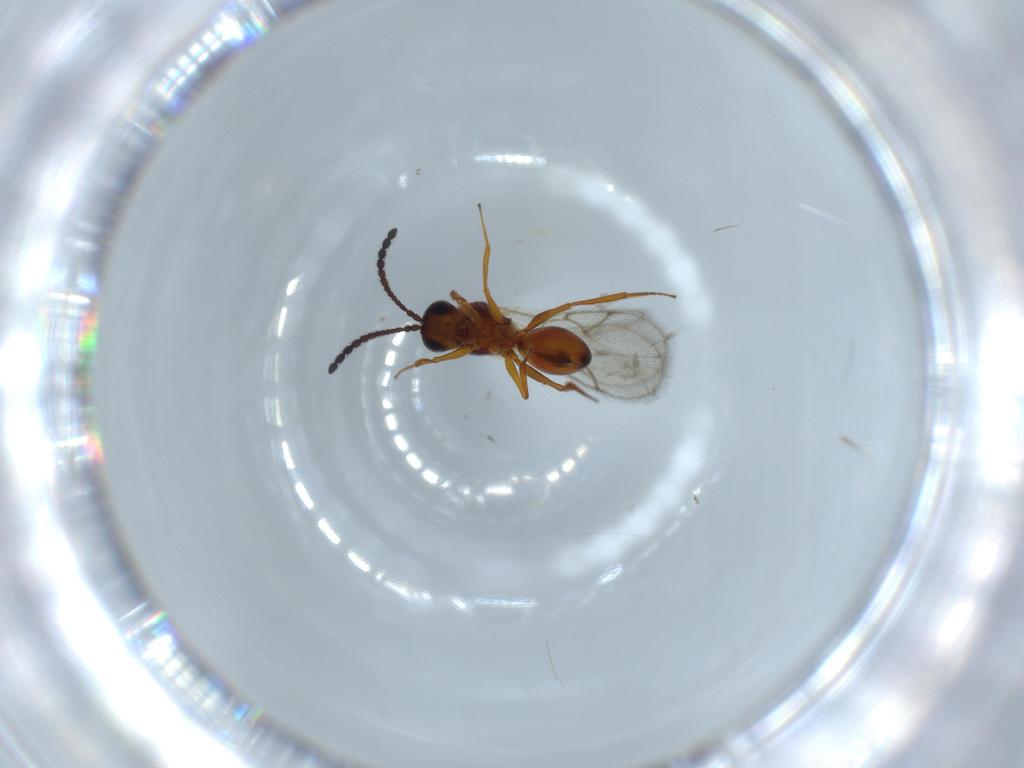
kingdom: Animalia
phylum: Arthropoda
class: Insecta
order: Hymenoptera
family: Figitidae
